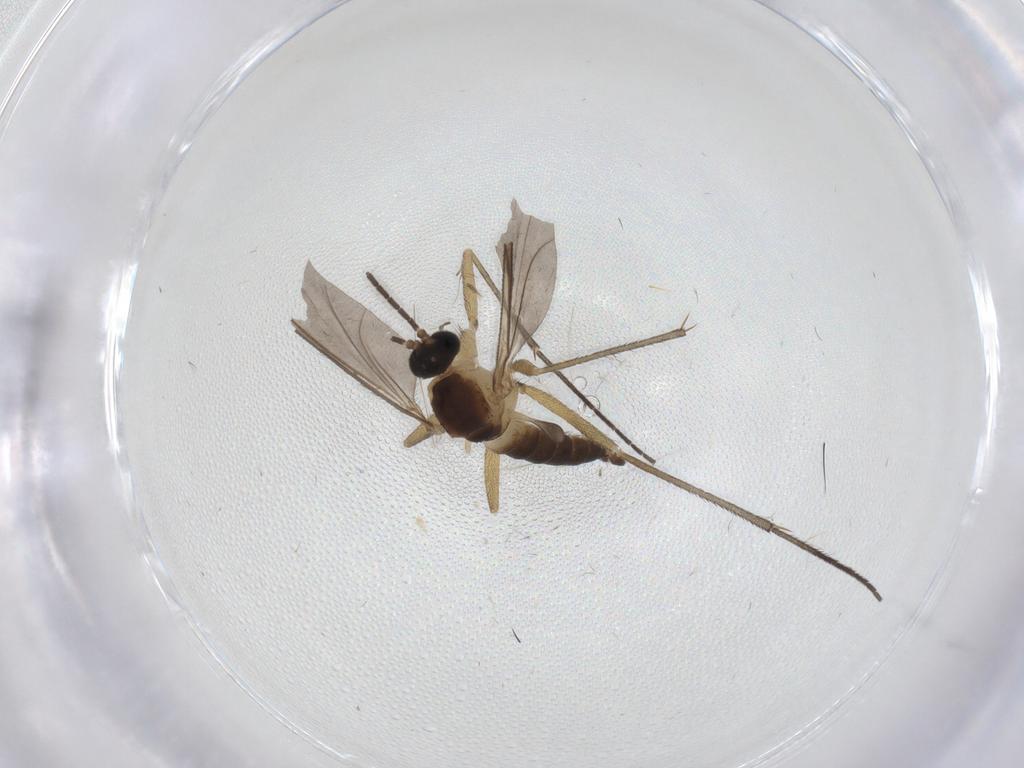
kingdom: Animalia
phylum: Arthropoda
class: Insecta
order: Diptera
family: Sciaridae
